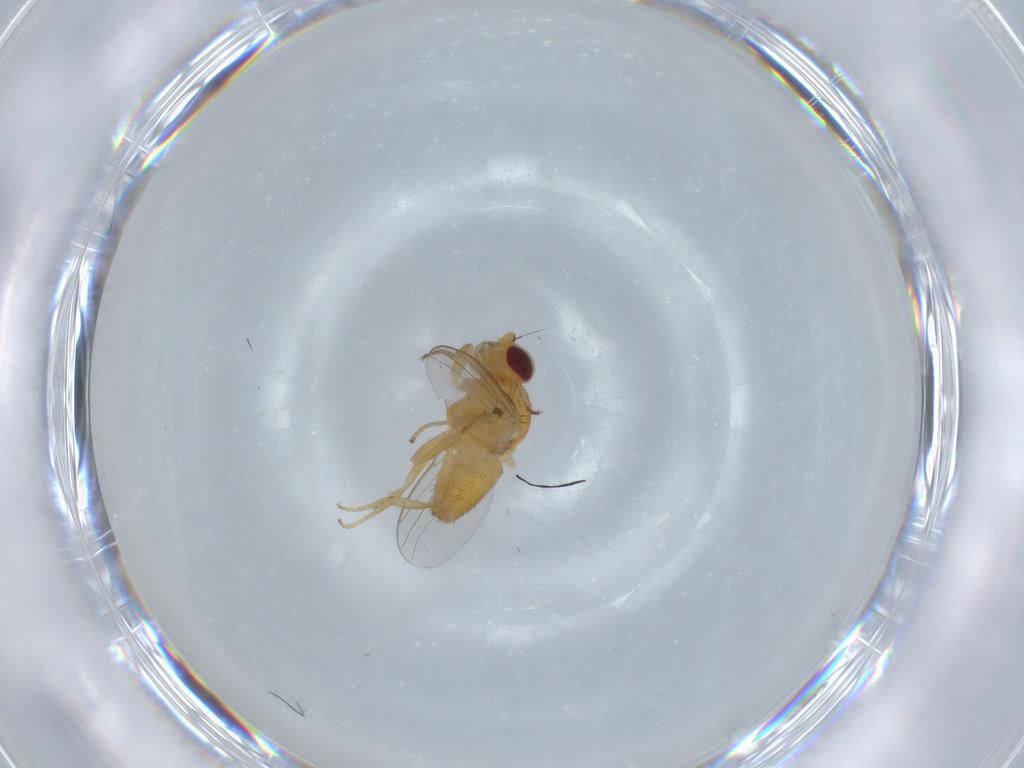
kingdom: Animalia
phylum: Arthropoda
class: Insecta
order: Diptera
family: Chloropidae
